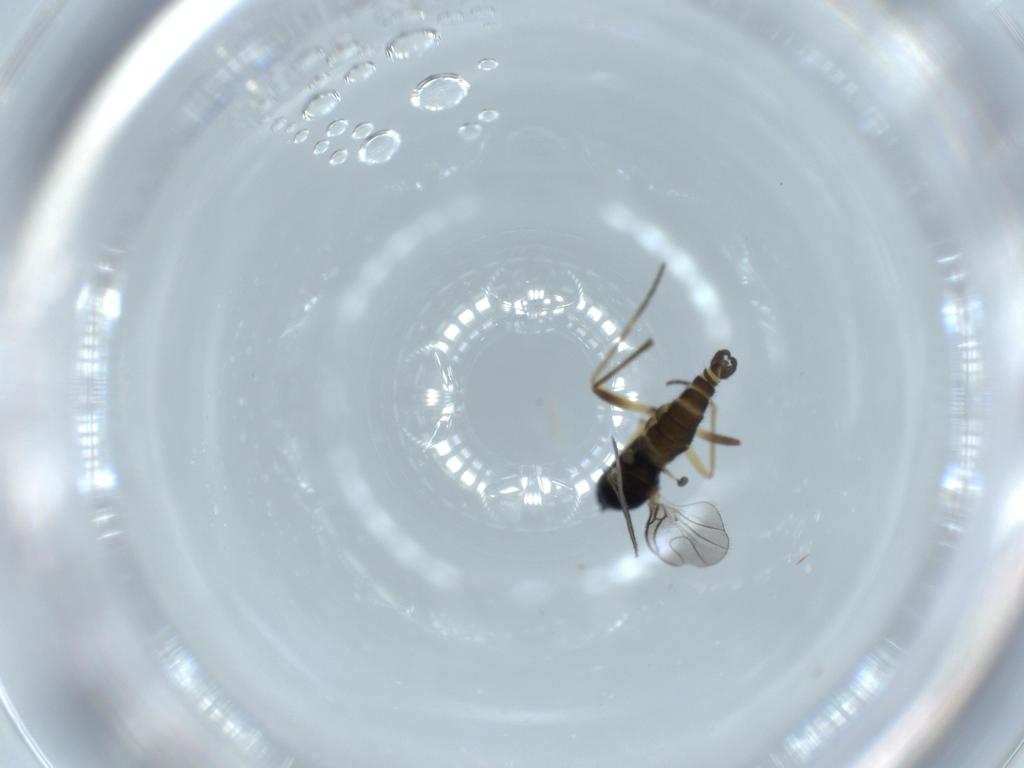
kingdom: Animalia
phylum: Arthropoda
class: Insecta
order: Diptera
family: Sciaridae
